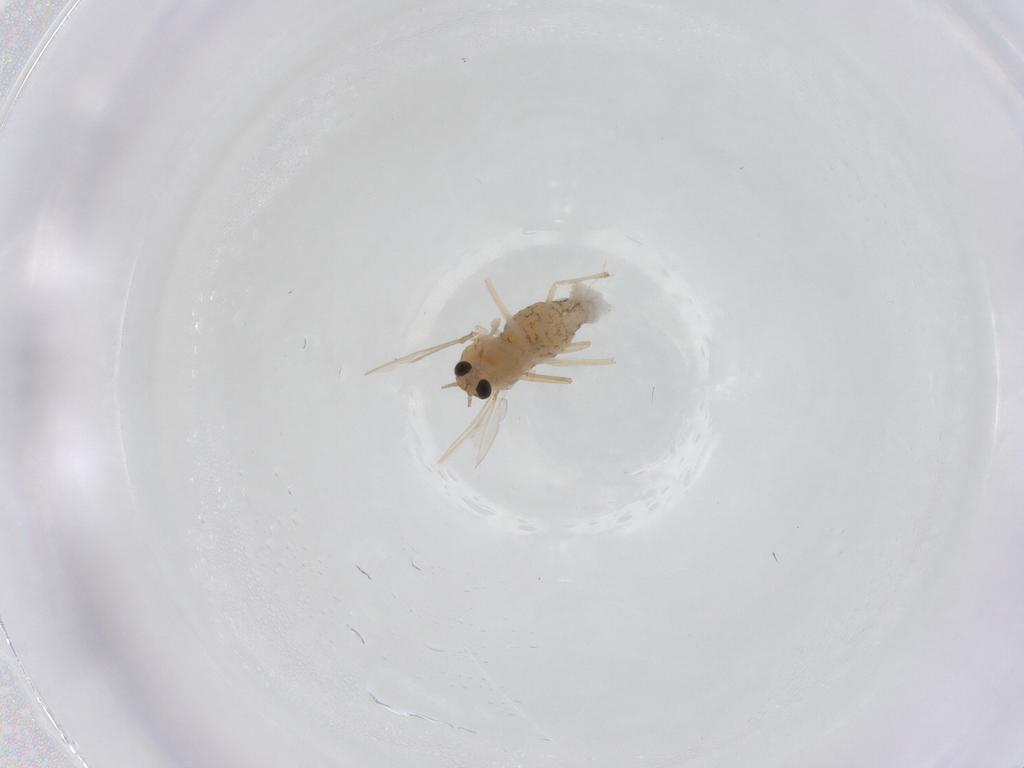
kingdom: Animalia
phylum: Arthropoda
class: Insecta
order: Diptera
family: Chironomidae
